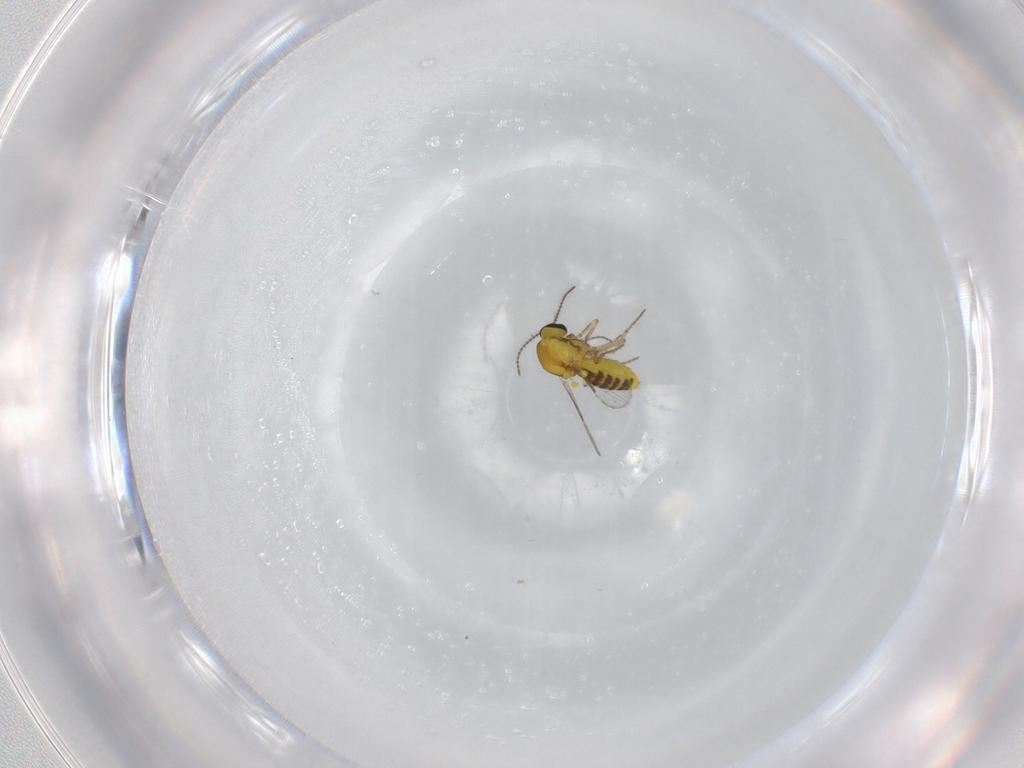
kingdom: Animalia
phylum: Arthropoda
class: Insecta
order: Diptera
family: Ceratopogonidae
